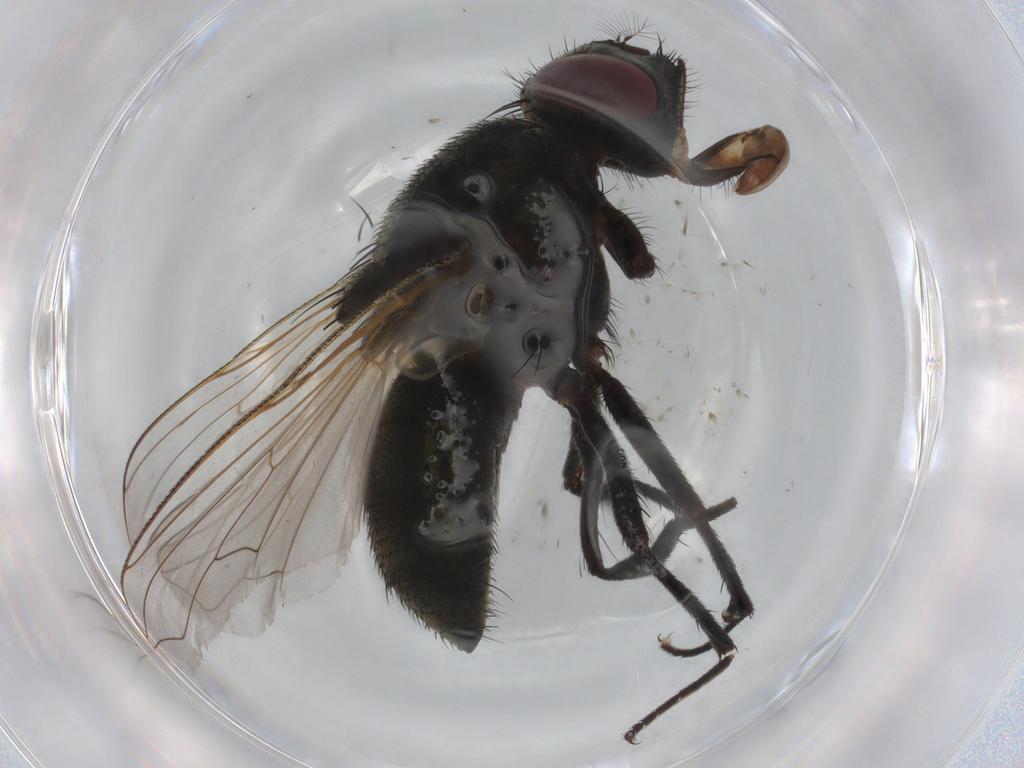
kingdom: Animalia
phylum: Arthropoda
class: Insecta
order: Diptera
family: Muscidae
